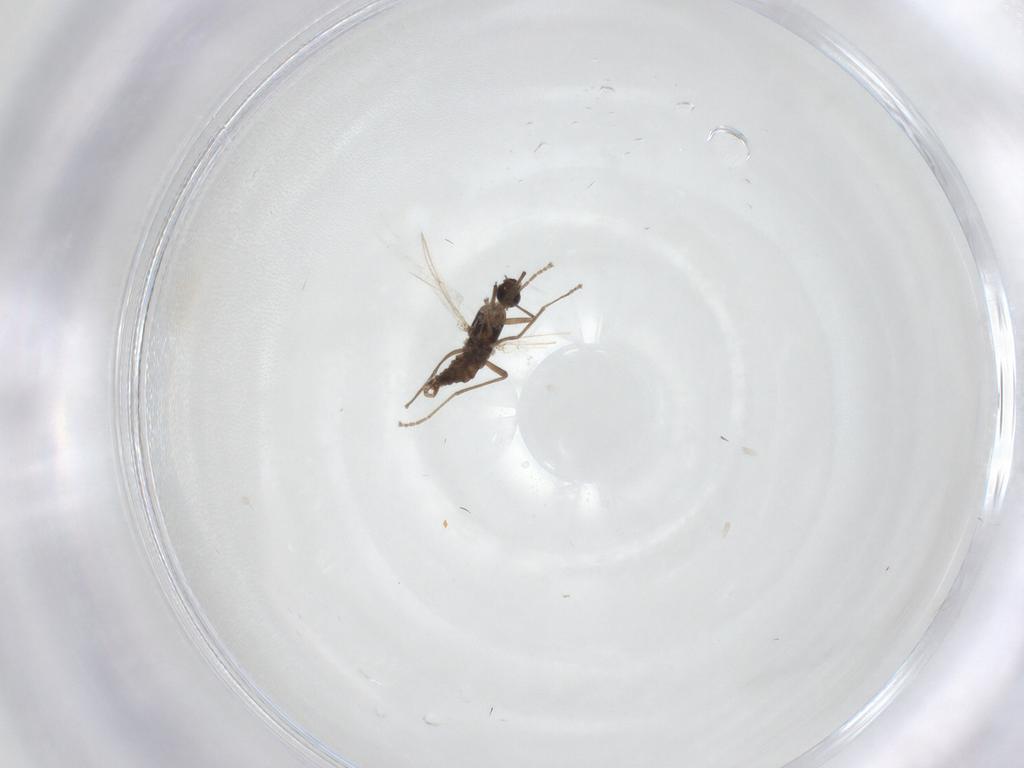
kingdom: Animalia
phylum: Arthropoda
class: Insecta
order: Diptera
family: Cecidomyiidae
